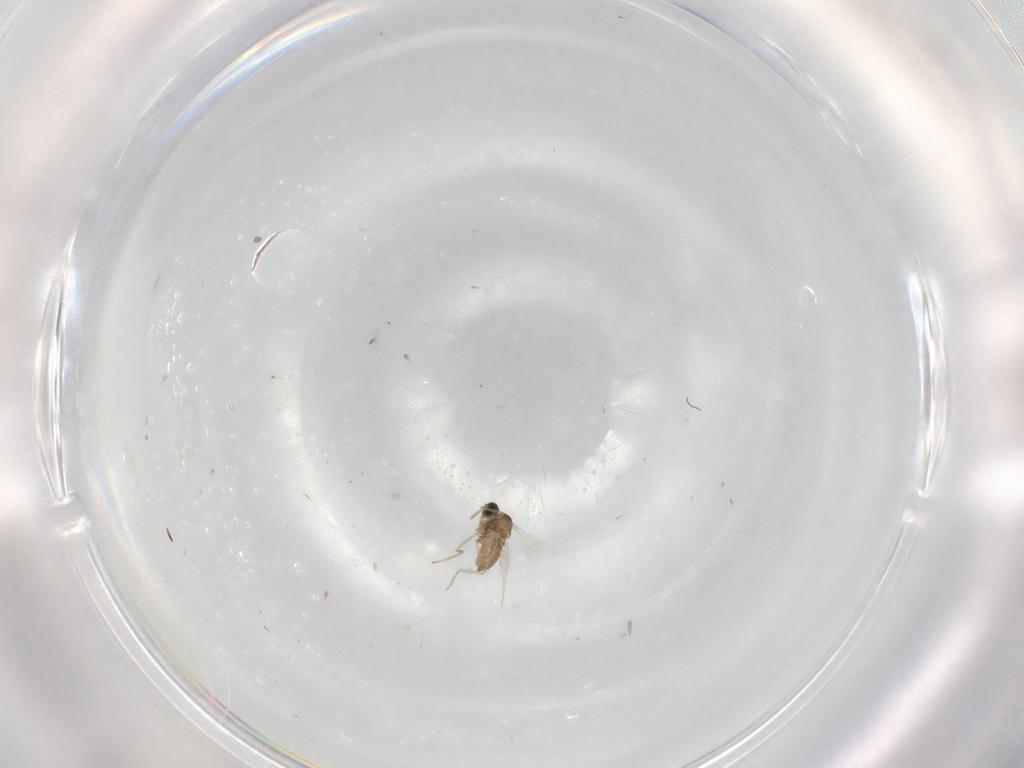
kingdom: Animalia
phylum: Arthropoda
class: Insecta
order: Diptera
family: Cecidomyiidae
